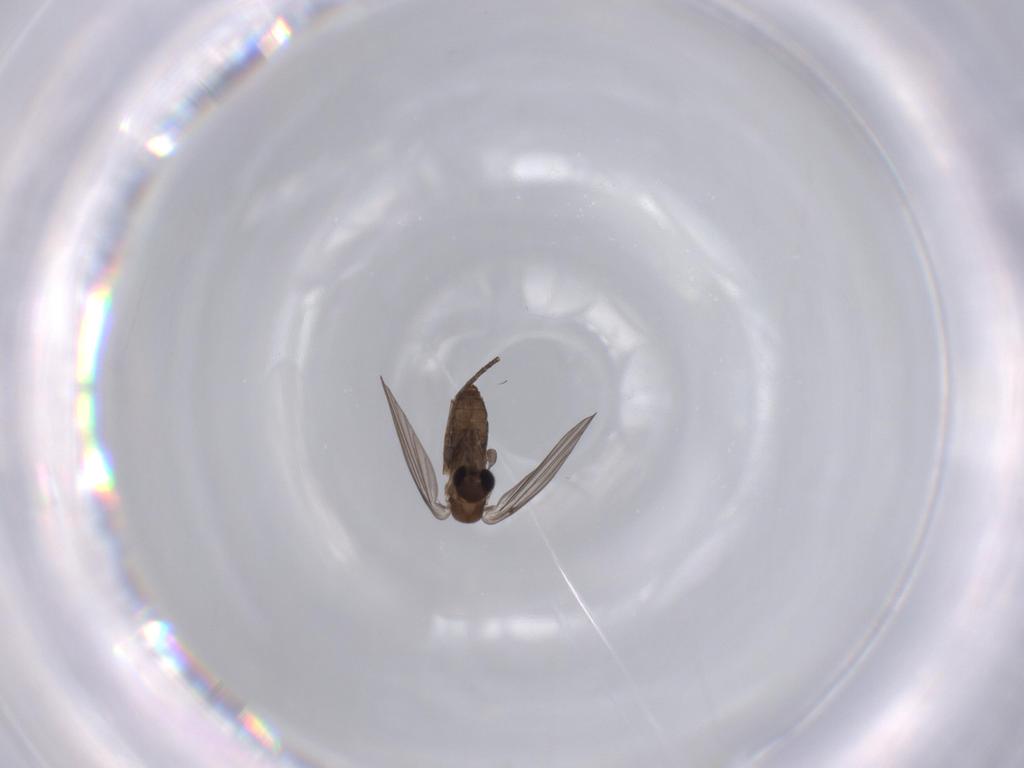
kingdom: Animalia
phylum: Arthropoda
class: Insecta
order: Diptera
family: Psychodidae
